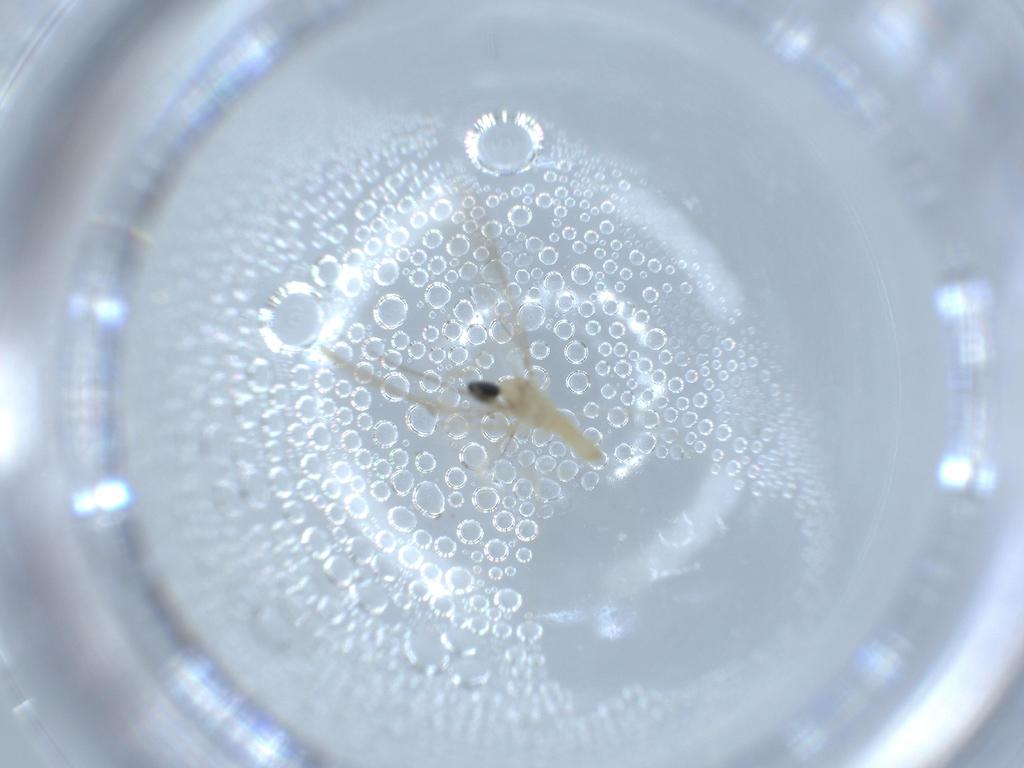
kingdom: Animalia
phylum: Arthropoda
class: Insecta
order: Diptera
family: Cecidomyiidae
